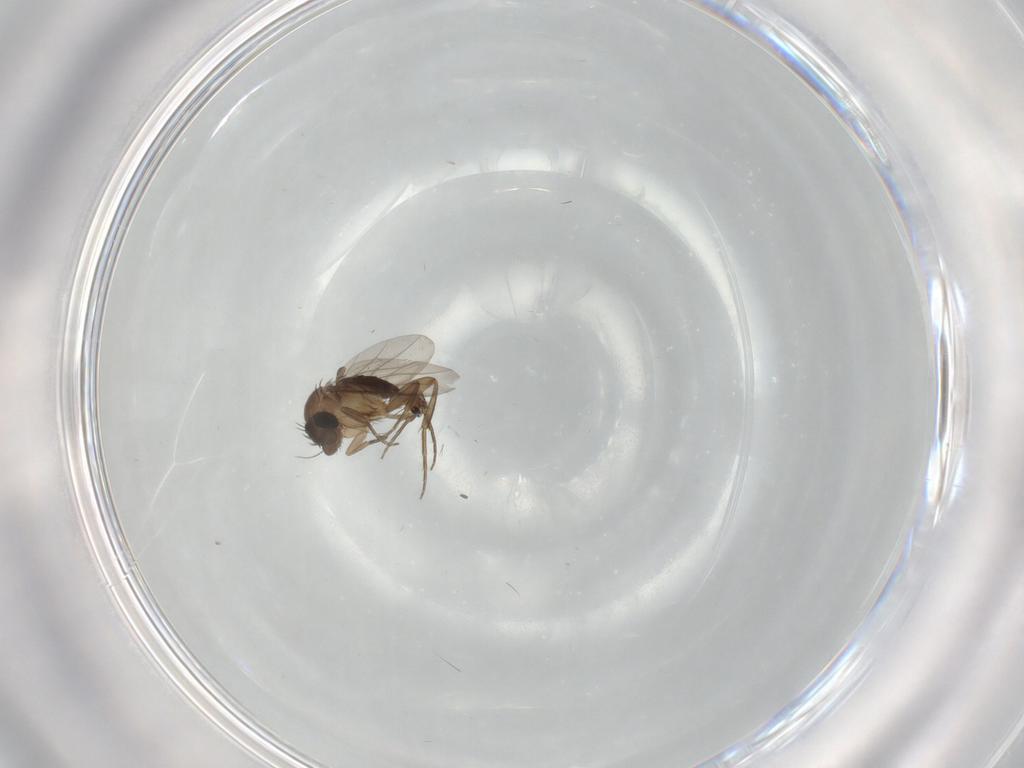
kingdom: Animalia
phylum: Arthropoda
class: Insecta
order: Diptera
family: Phoridae
